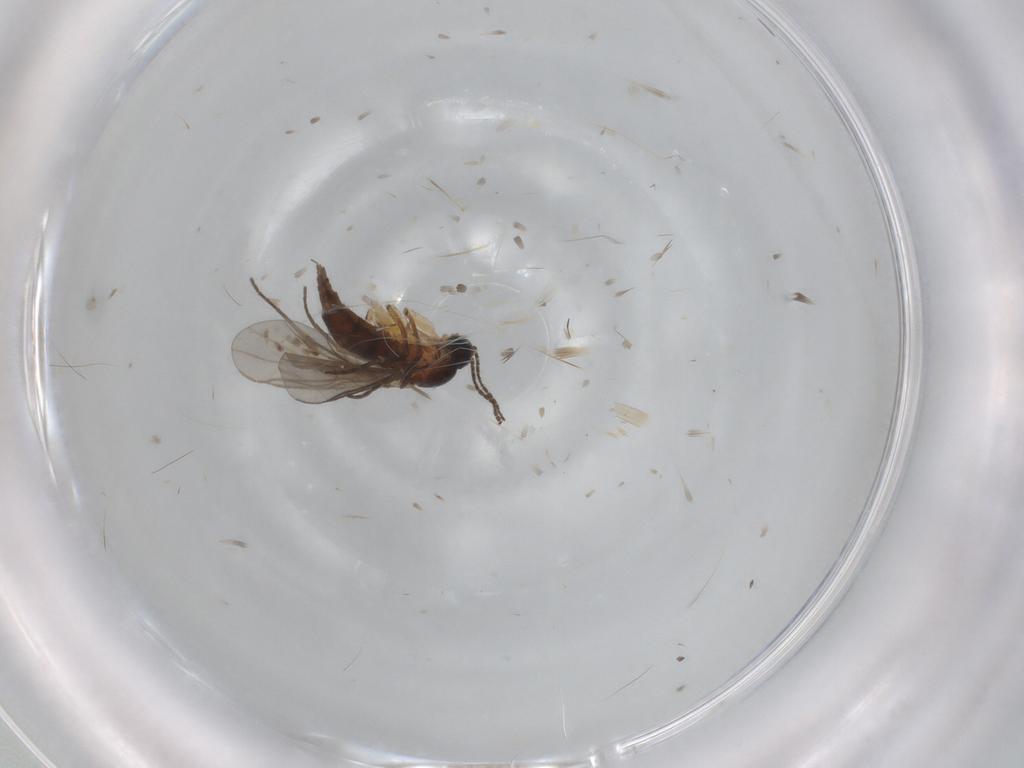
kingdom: Animalia
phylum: Arthropoda
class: Insecta
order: Diptera
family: Sciaridae
